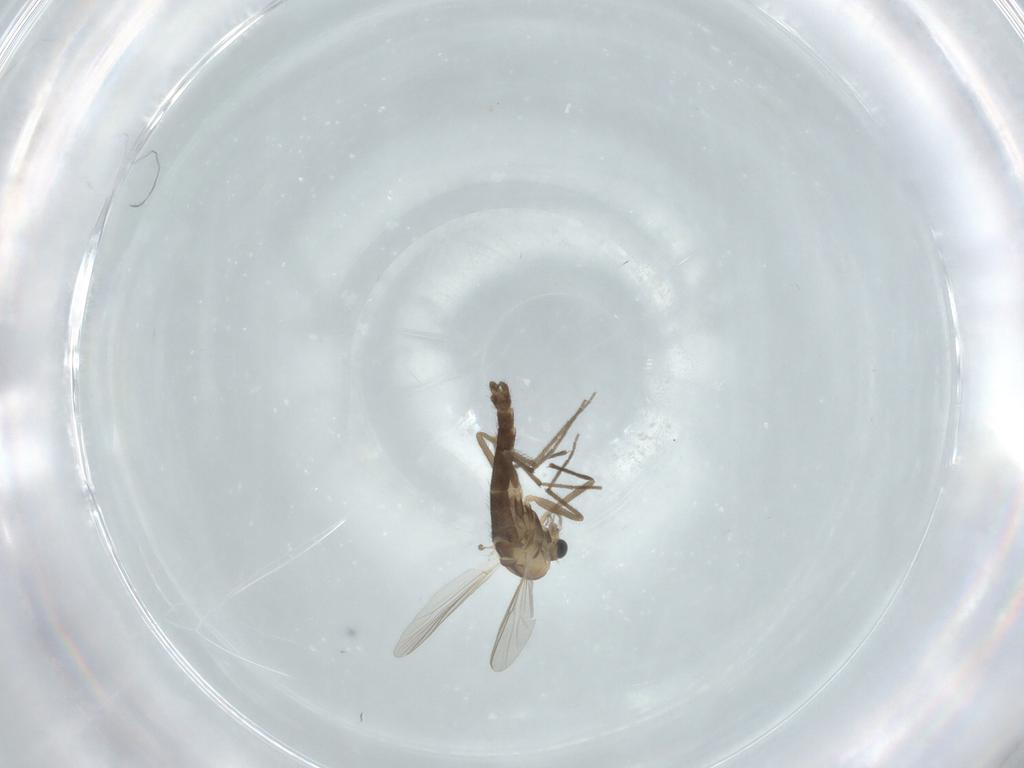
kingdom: Animalia
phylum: Arthropoda
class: Insecta
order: Diptera
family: Chironomidae
